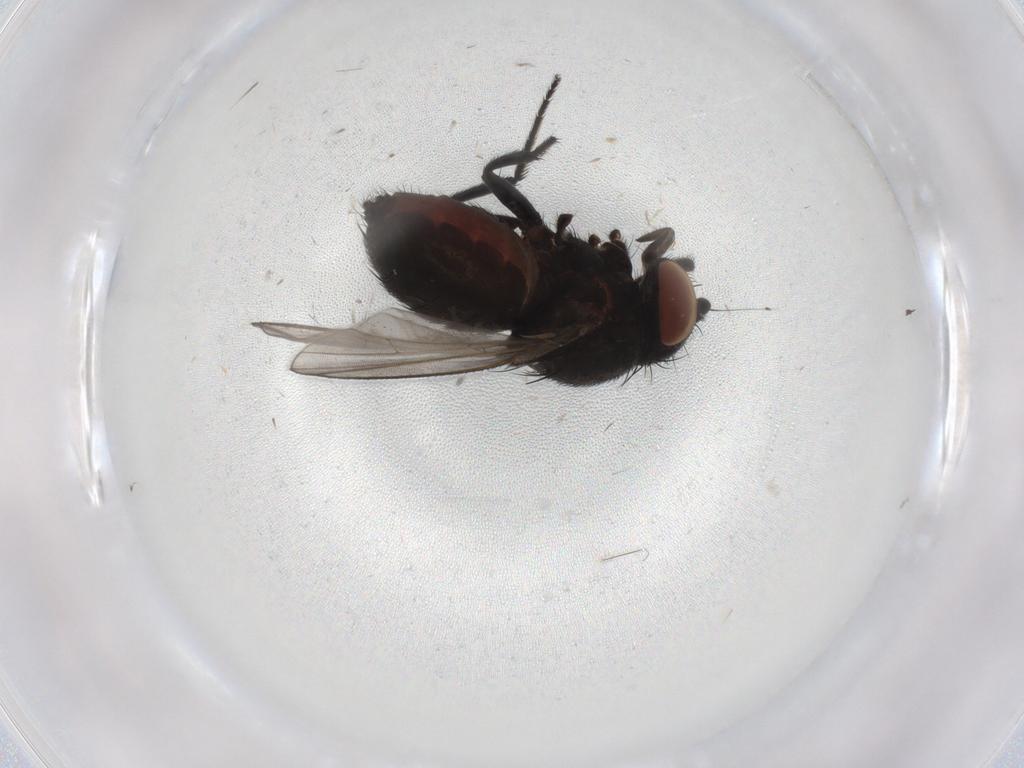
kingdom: Animalia
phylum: Arthropoda
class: Insecta
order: Diptera
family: Milichiidae
